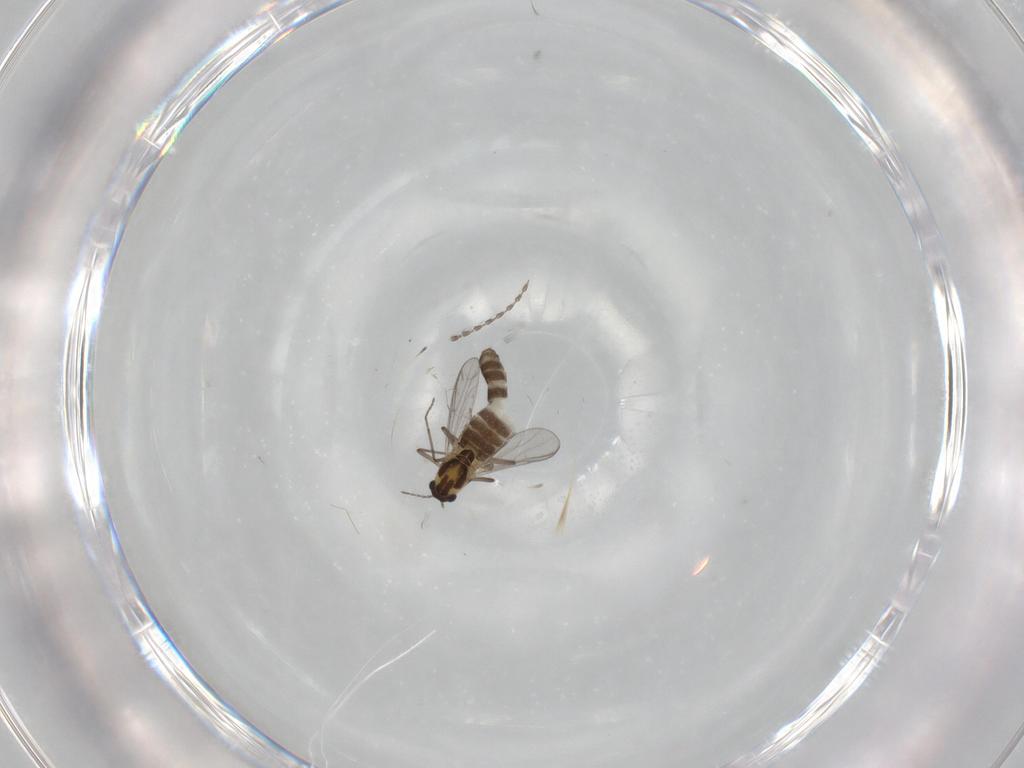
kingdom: Animalia
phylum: Arthropoda
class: Insecta
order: Diptera
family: Chironomidae
